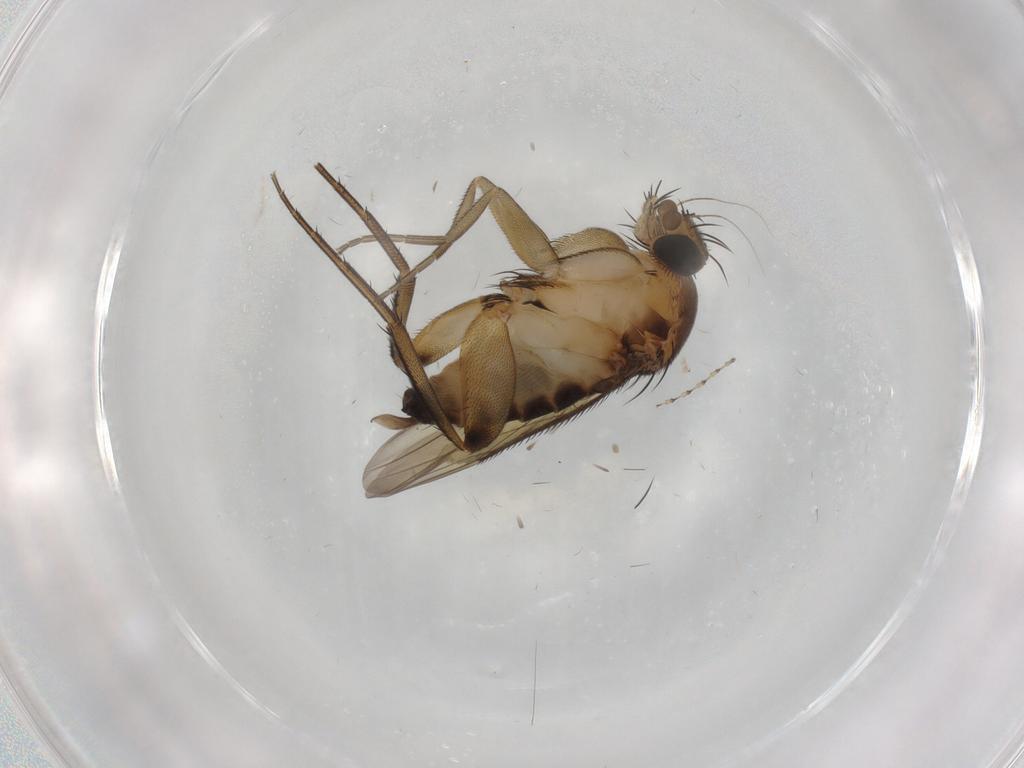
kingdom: Animalia
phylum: Arthropoda
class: Insecta
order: Diptera
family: Phoridae
